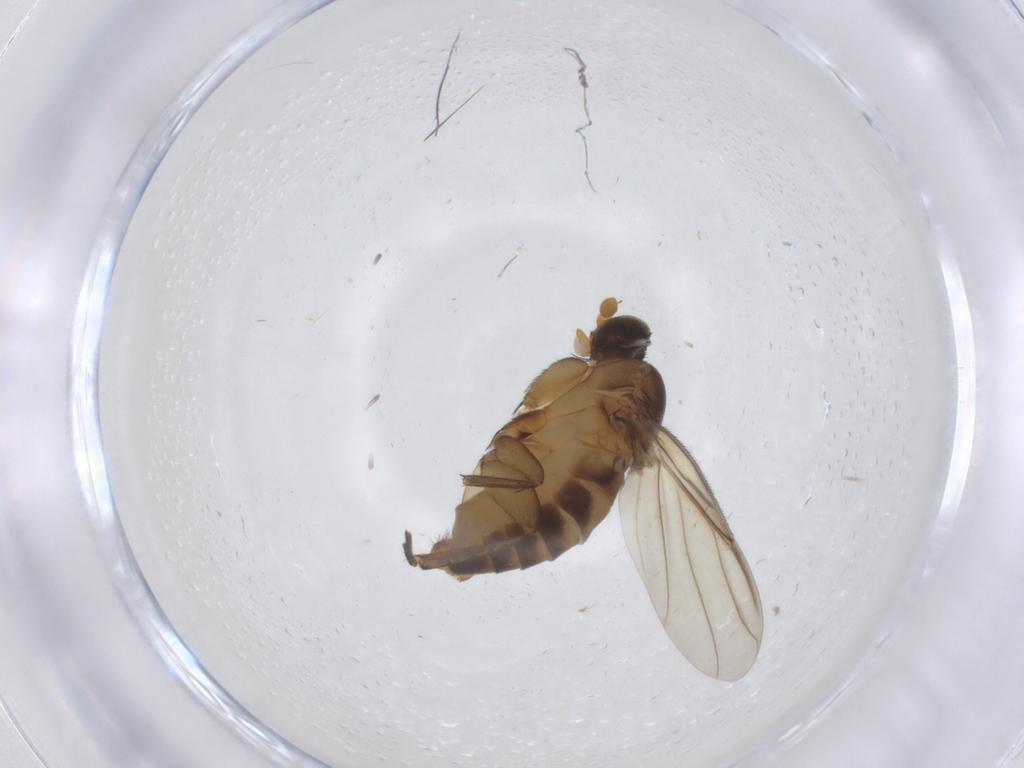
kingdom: Animalia
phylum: Arthropoda
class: Insecta
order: Diptera
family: Phoridae
